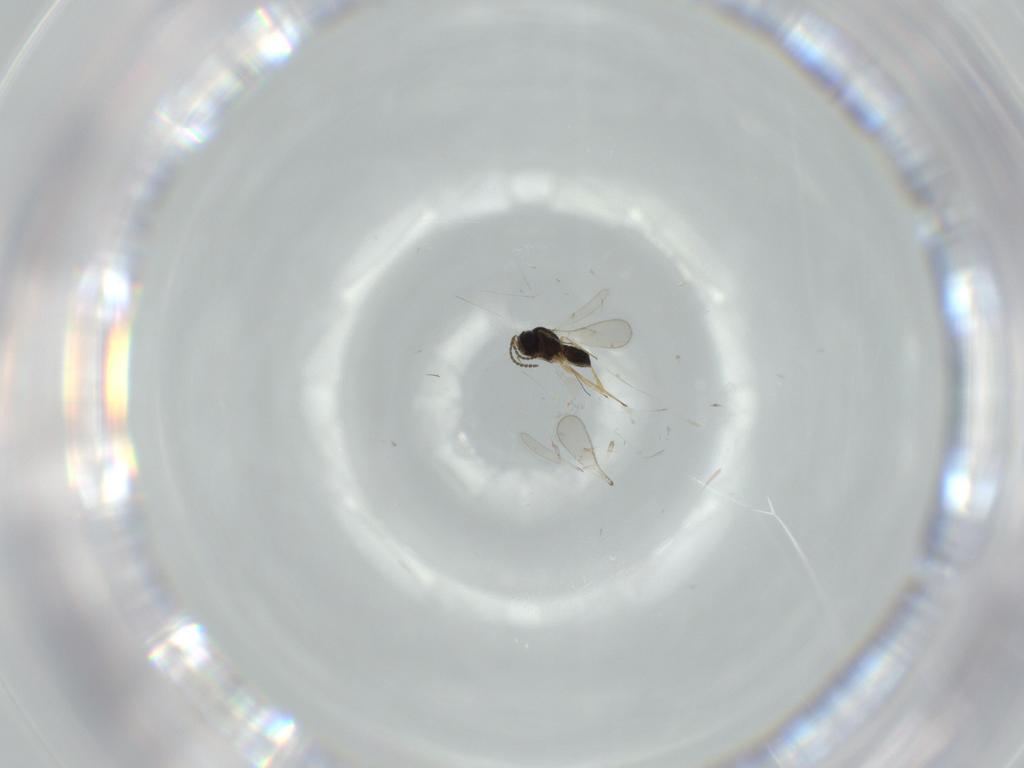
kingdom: Animalia
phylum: Arthropoda
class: Insecta
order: Hymenoptera
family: Scelionidae
